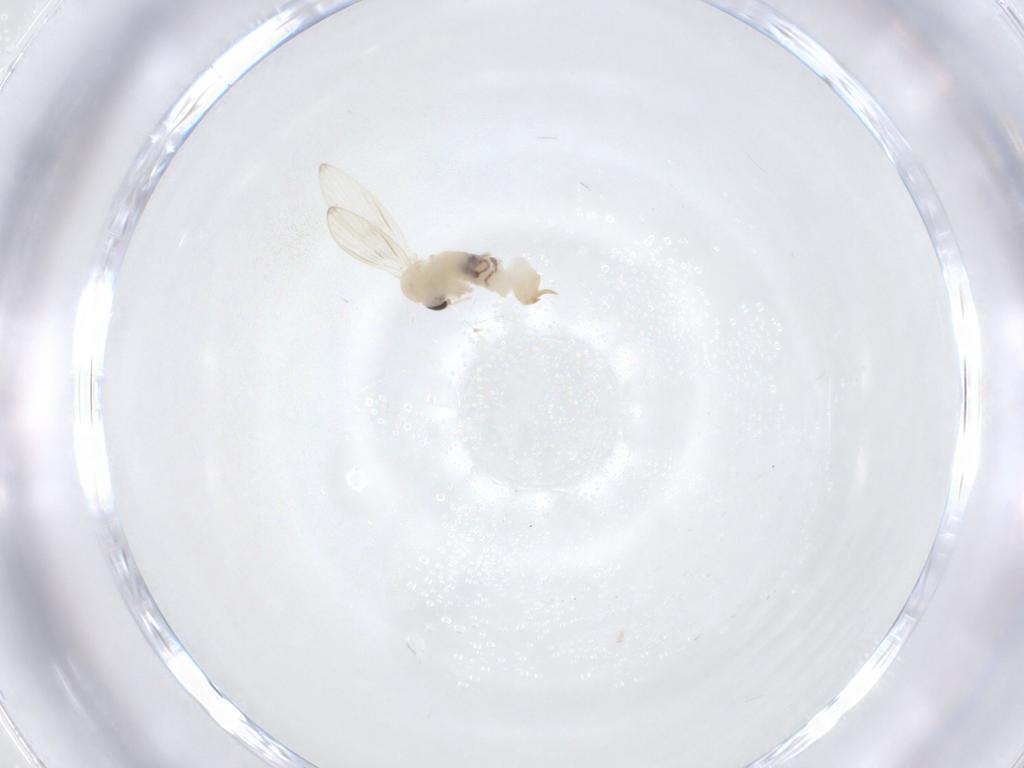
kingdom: Animalia
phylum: Arthropoda
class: Insecta
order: Diptera
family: Psychodidae
